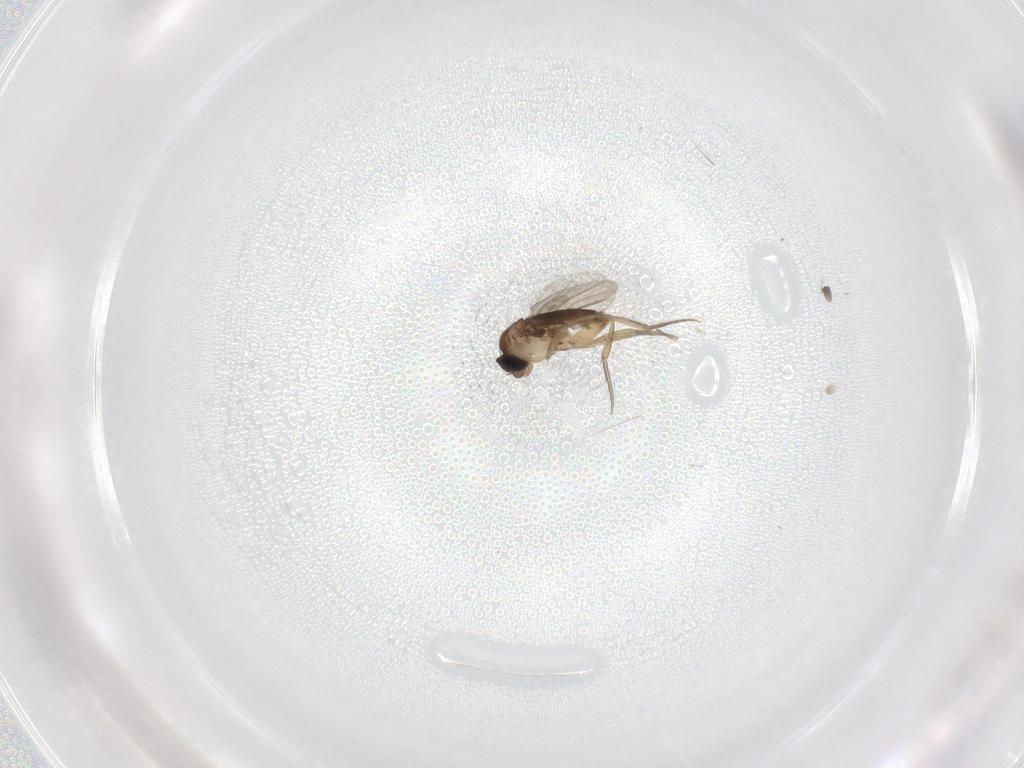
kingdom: Animalia
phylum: Arthropoda
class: Insecta
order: Diptera
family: Phoridae
